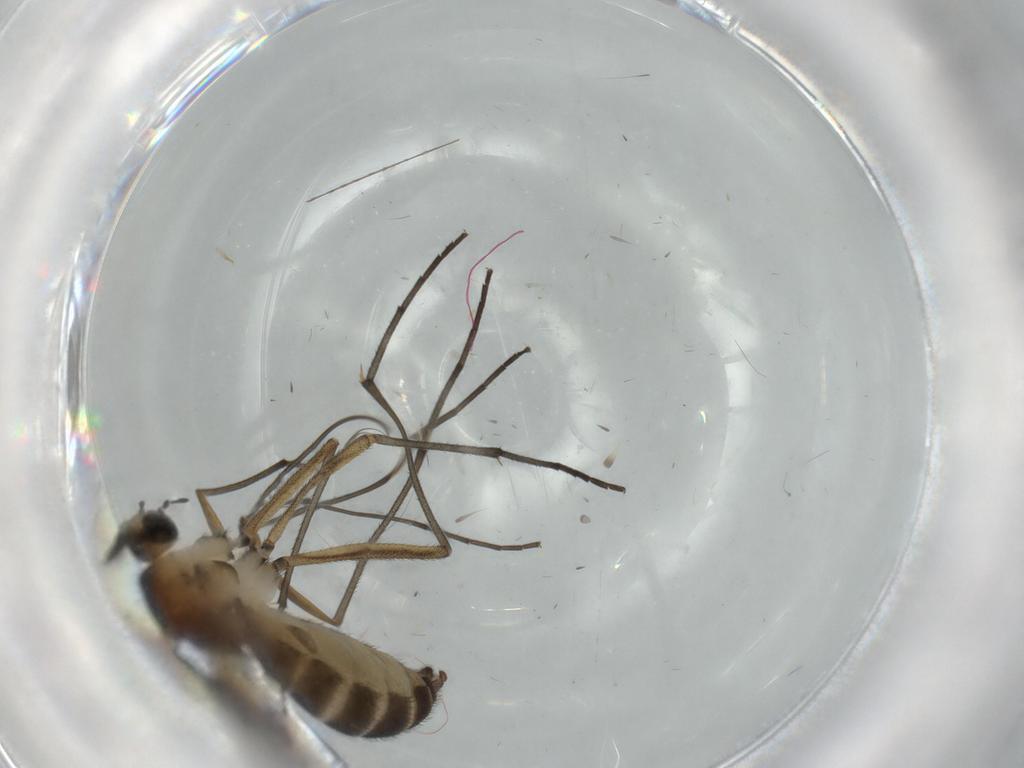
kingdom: Animalia
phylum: Arthropoda
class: Insecta
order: Diptera
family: Sciaridae
